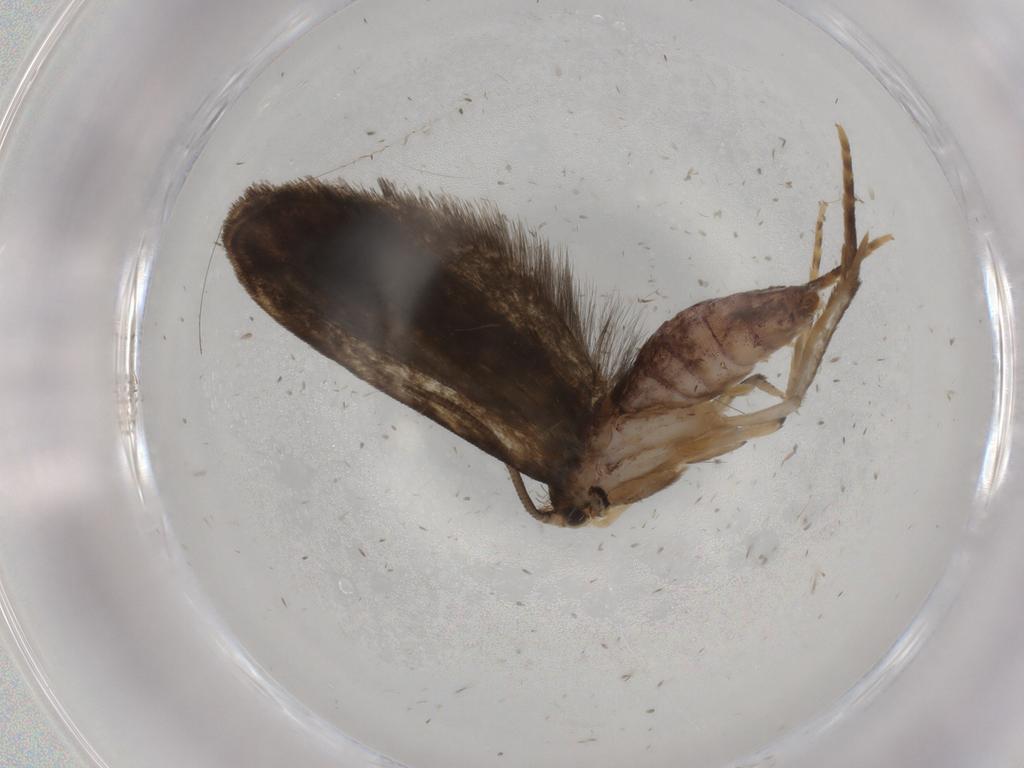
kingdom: Animalia
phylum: Arthropoda
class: Insecta
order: Lepidoptera
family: Dryadaulidae
